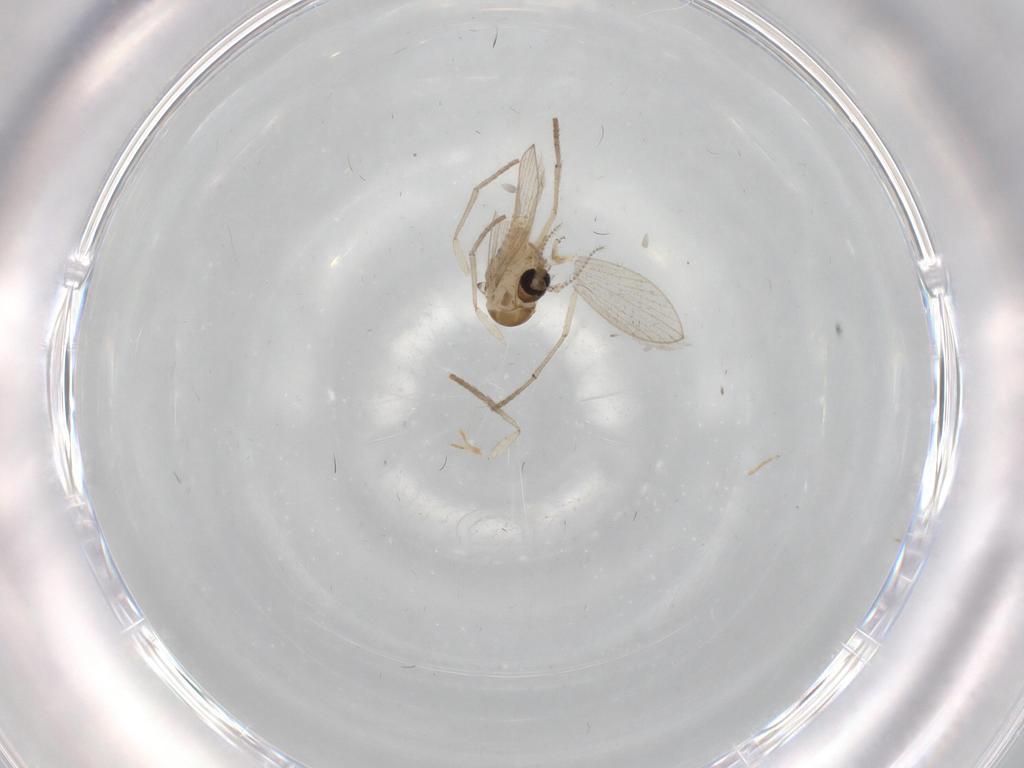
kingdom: Animalia
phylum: Arthropoda
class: Insecta
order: Diptera
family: Psychodidae
